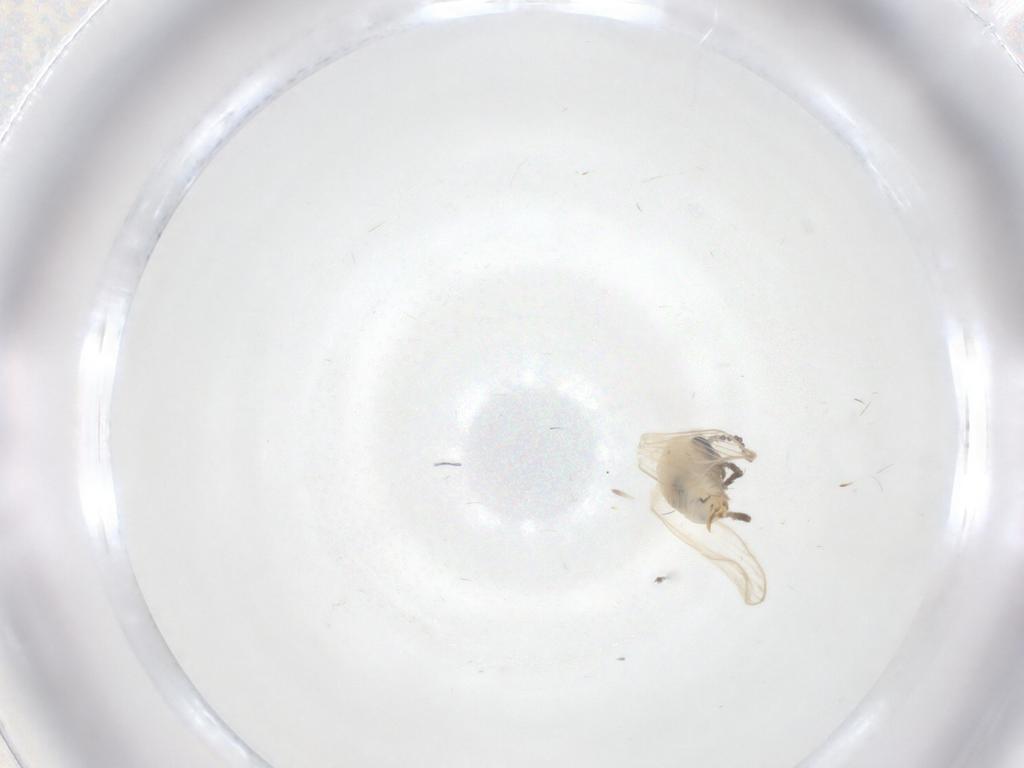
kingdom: Animalia
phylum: Arthropoda
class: Insecta
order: Diptera
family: Psychodidae
